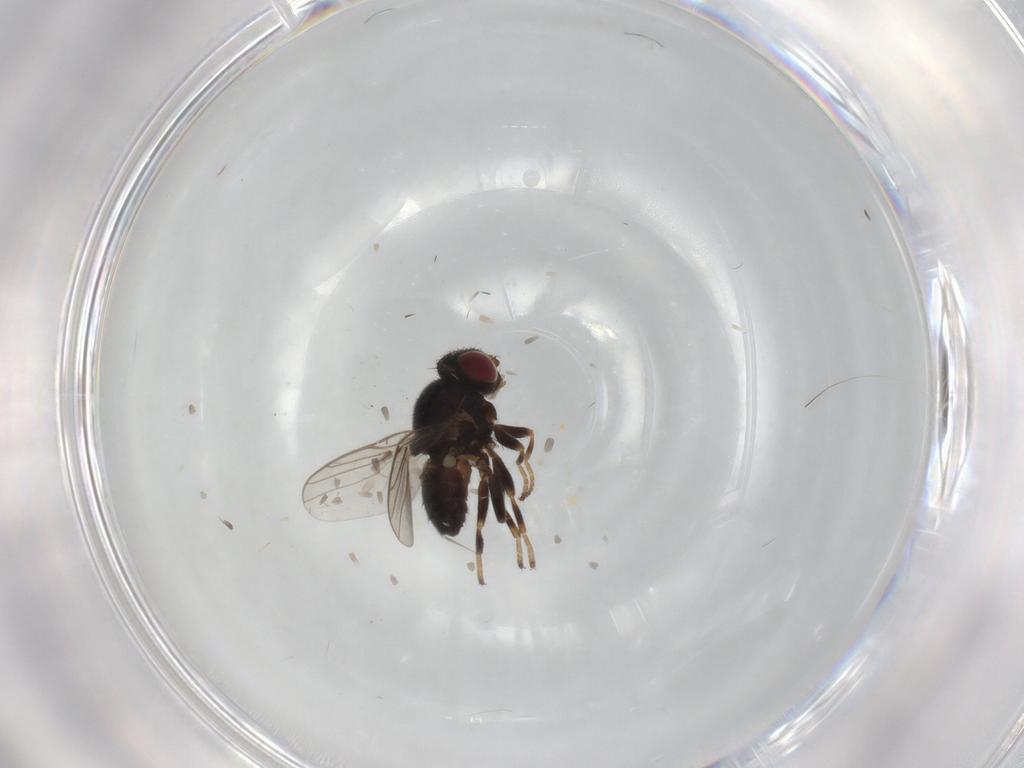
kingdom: Animalia
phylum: Arthropoda
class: Insecta
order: Diptera
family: Chloropidae
